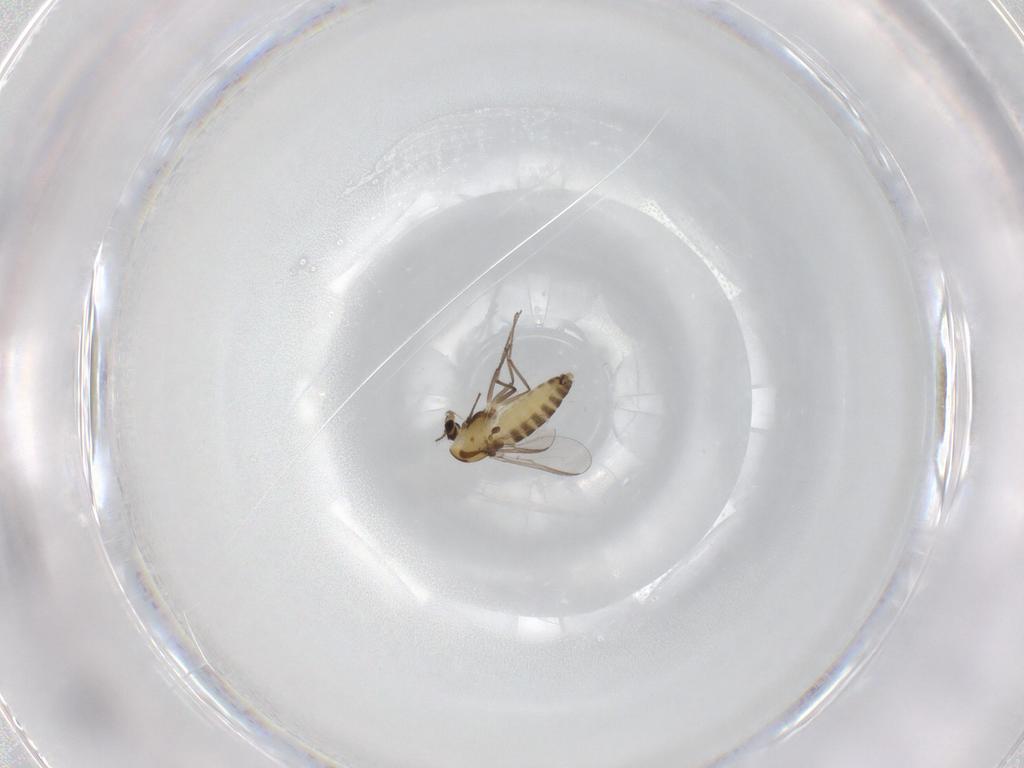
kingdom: Animalia
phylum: Arthropoda
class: Insecta
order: Diptera
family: Chironomidae
